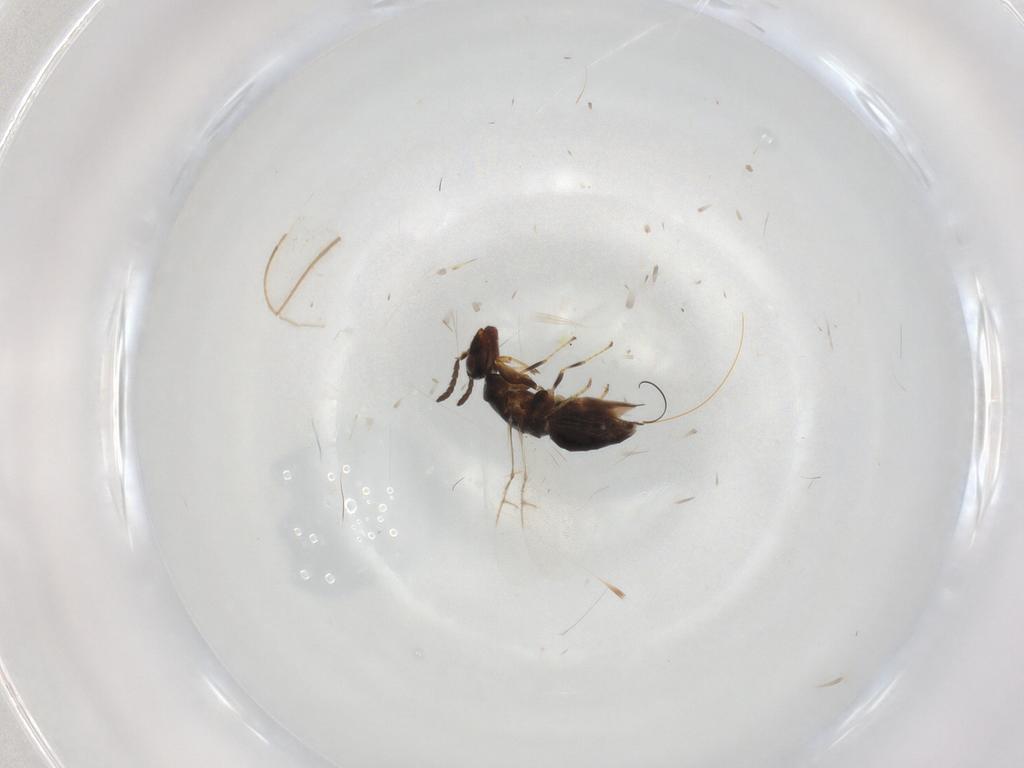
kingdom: Animalia
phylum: Arthropoda
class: Insecta
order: Hymenoptera
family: Agaonidae
